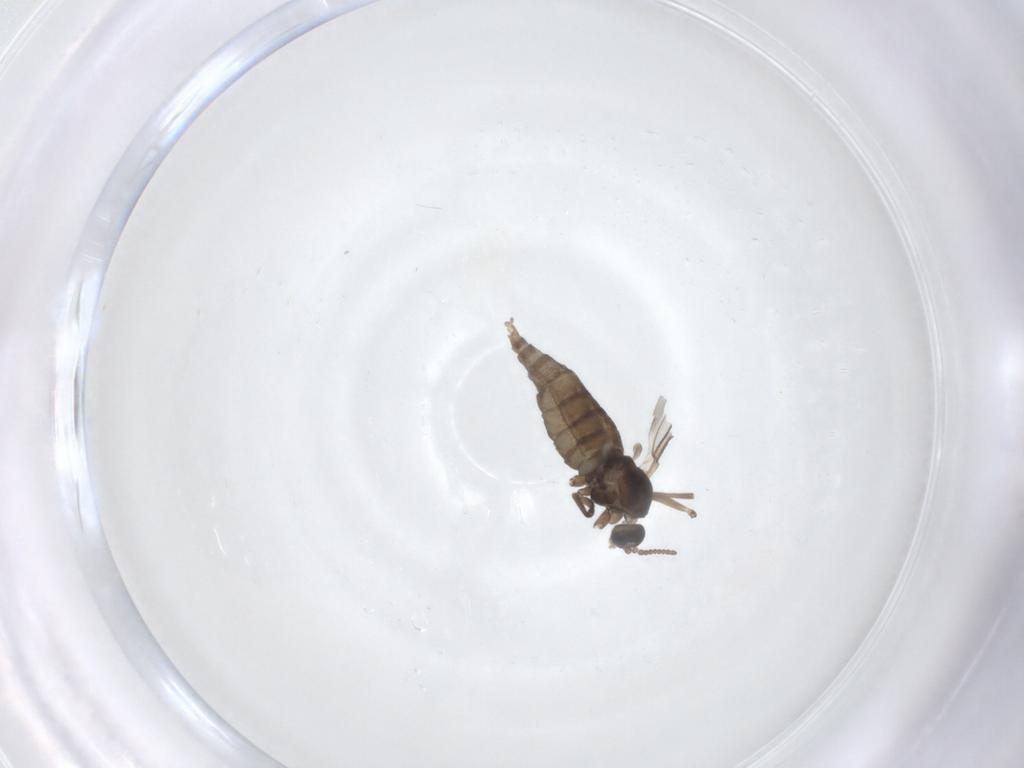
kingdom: Animalia
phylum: Arthropoda
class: Insecta
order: Diptera
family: Cecidomyiidae
